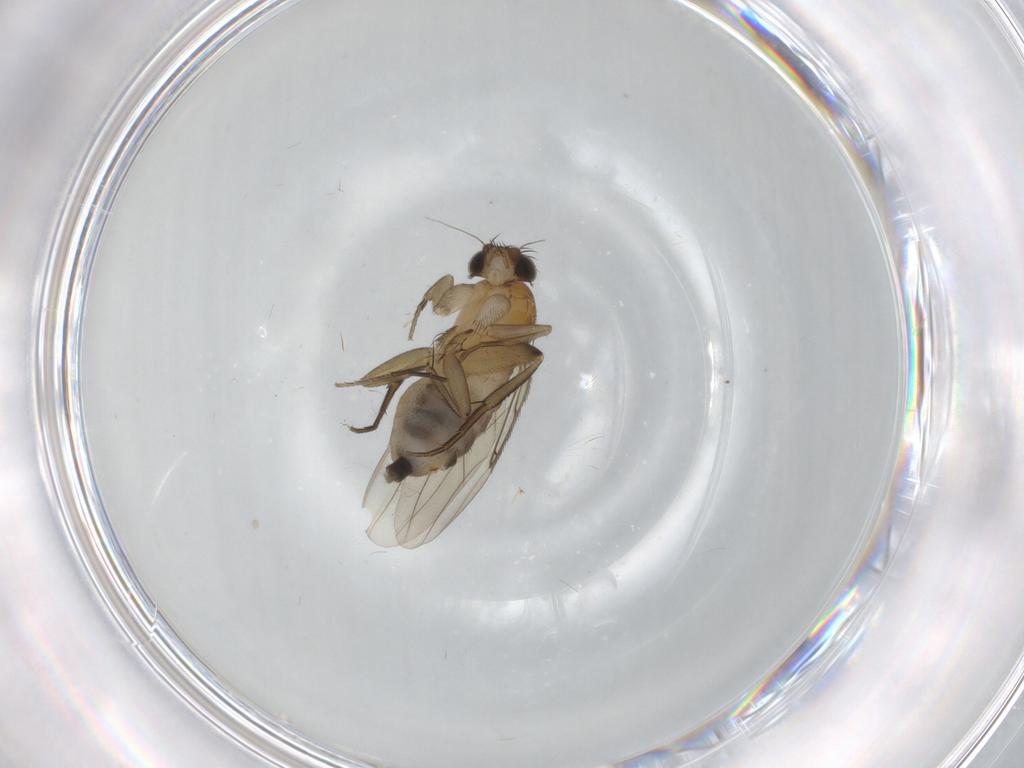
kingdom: Animalia
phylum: Arthropoda
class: Insecta
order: Diptera
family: Phoridae
